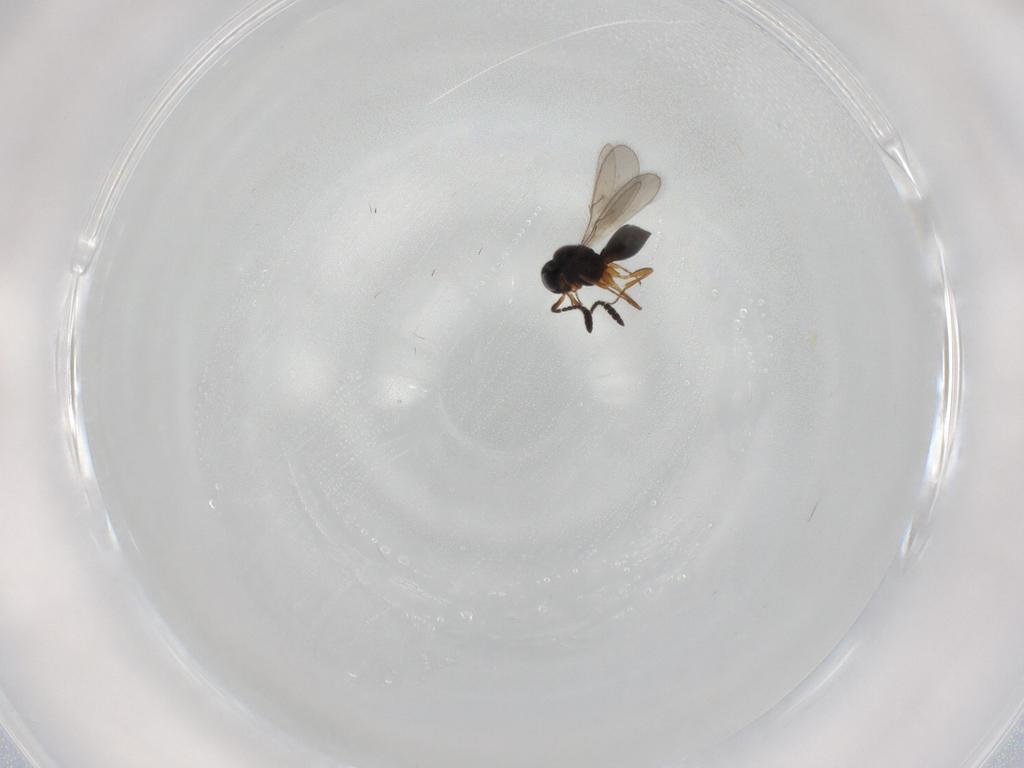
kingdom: Animalia
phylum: Arthropoda
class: Insecta
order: Hymenoptera
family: Scelionidae
